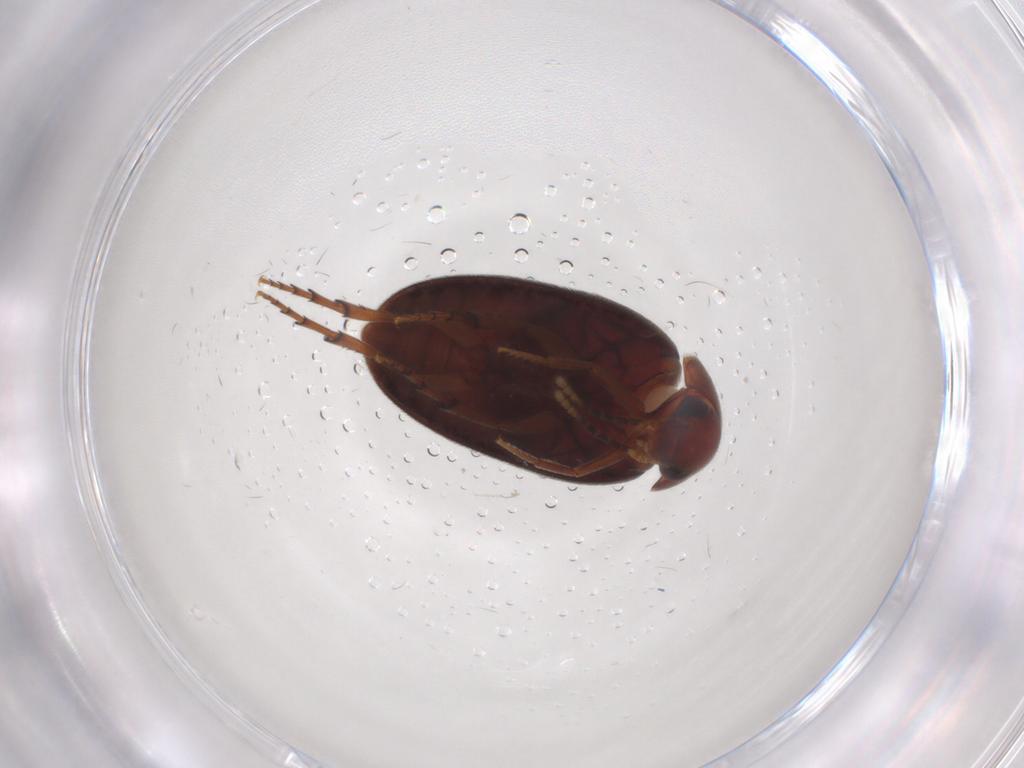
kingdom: Animalia
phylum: Arthropoda
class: Insecta
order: Coleoptera
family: Eucinetidae
